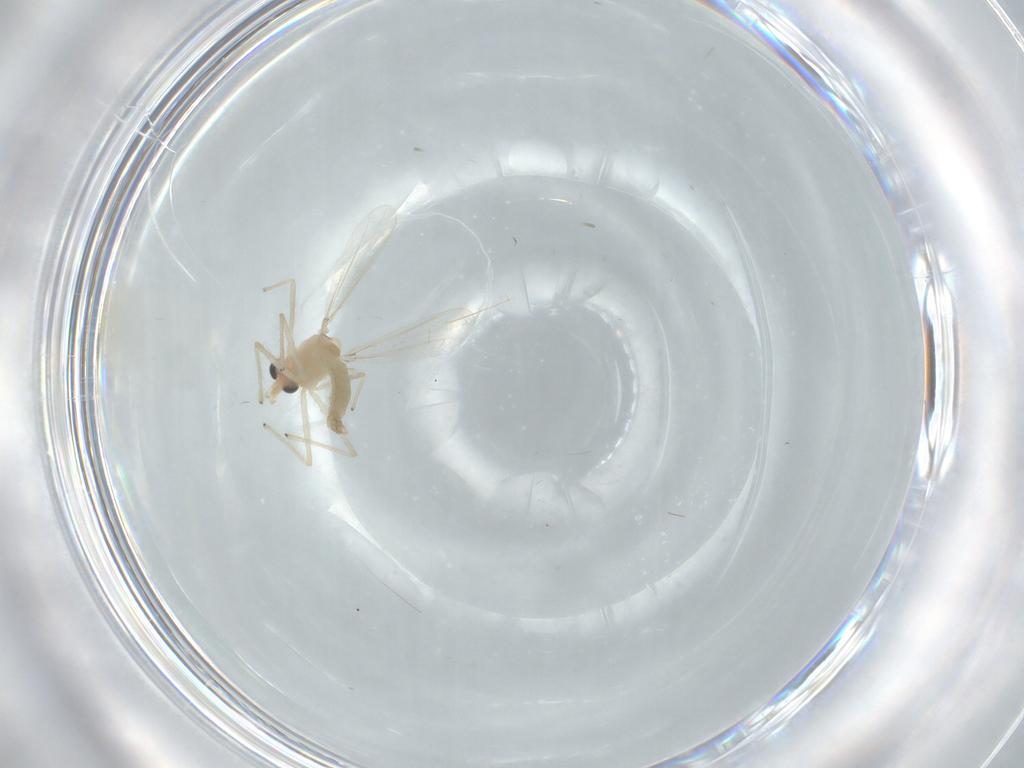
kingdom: Animalia
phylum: Arthropoda
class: Insecta
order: Diptera
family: Chironomidae
